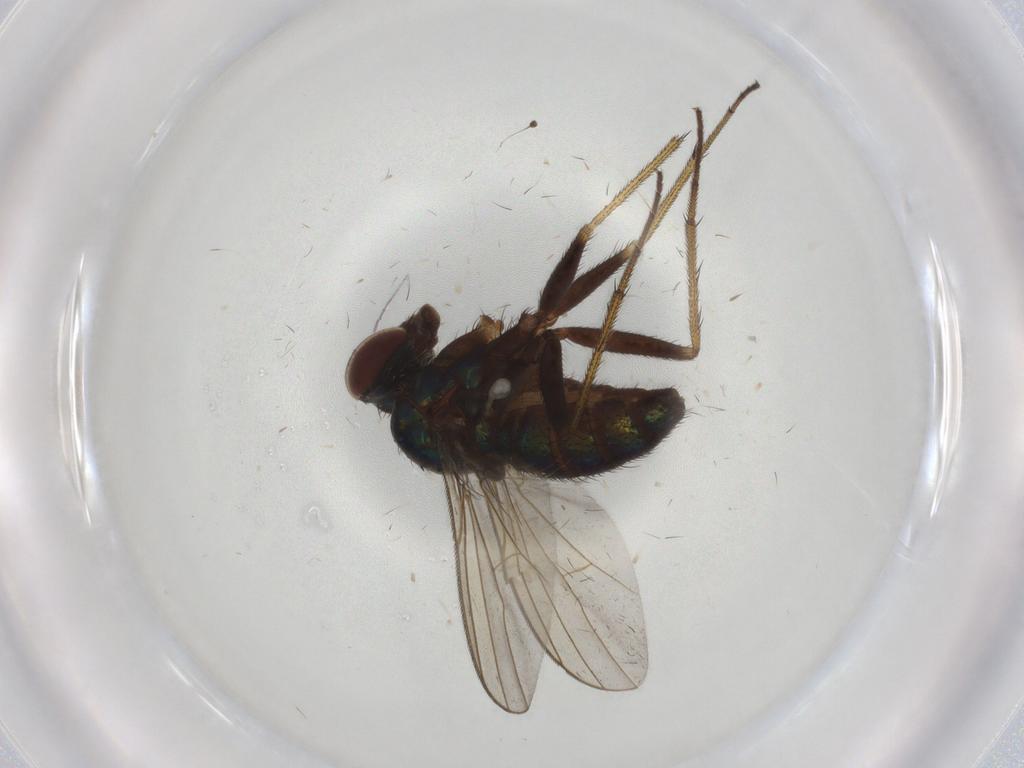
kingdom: Animalia
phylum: Arthropoda
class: Insecta
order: Diptera
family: Dolichopodidae
